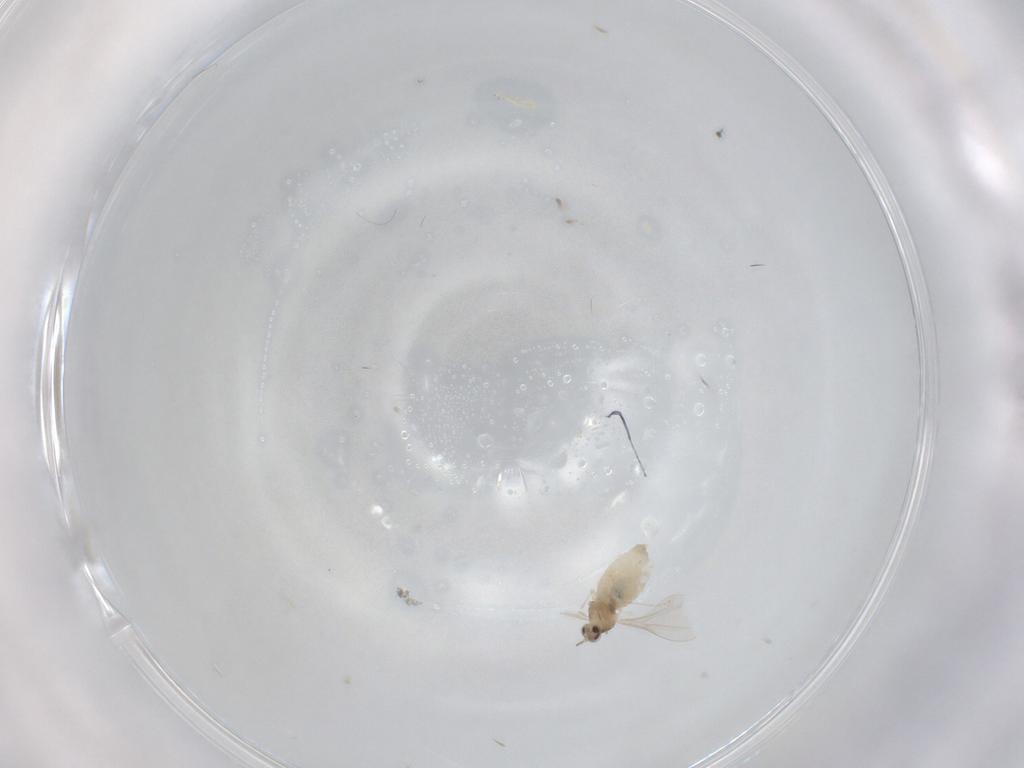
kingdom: Animalia
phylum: Arthropoda
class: Insecta
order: Diptera
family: Cecidomyiidae
